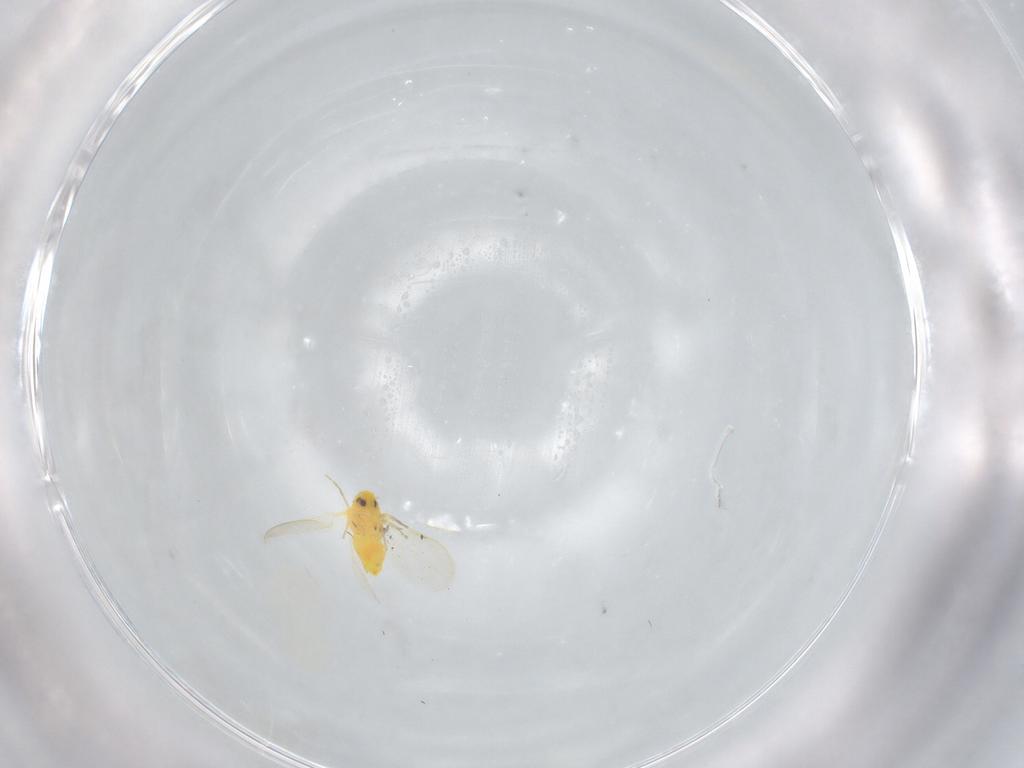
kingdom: Animalia
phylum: Arthropoda
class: Insecta
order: Hemiptera
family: Aleyrodidae
